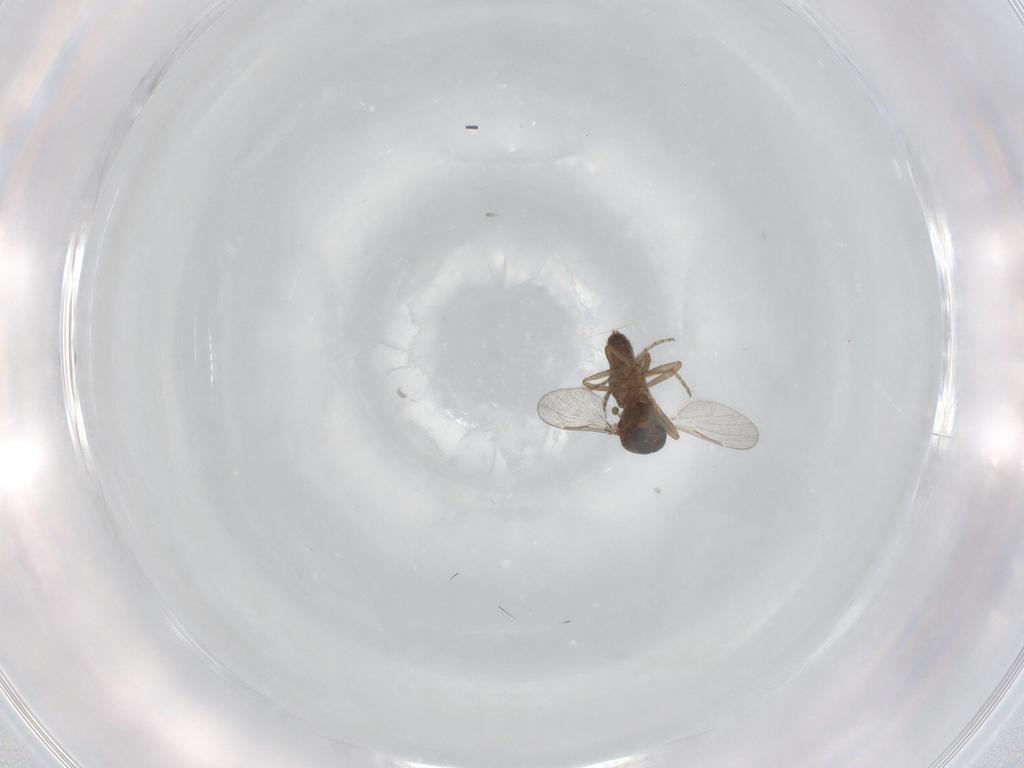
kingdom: Animalia
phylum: Arthropoda
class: Insecta
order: Diptera
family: Ceratopogonidae
